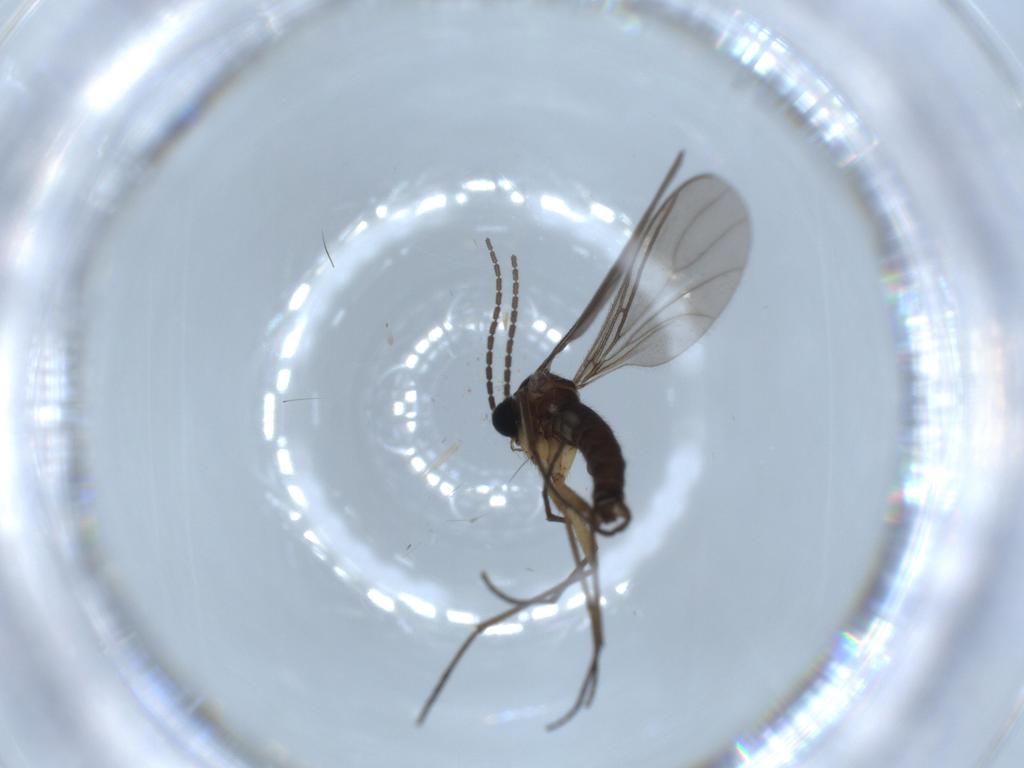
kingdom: Animalia
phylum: Arthropoda
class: Insecta
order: Diptera
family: Sciaridae
